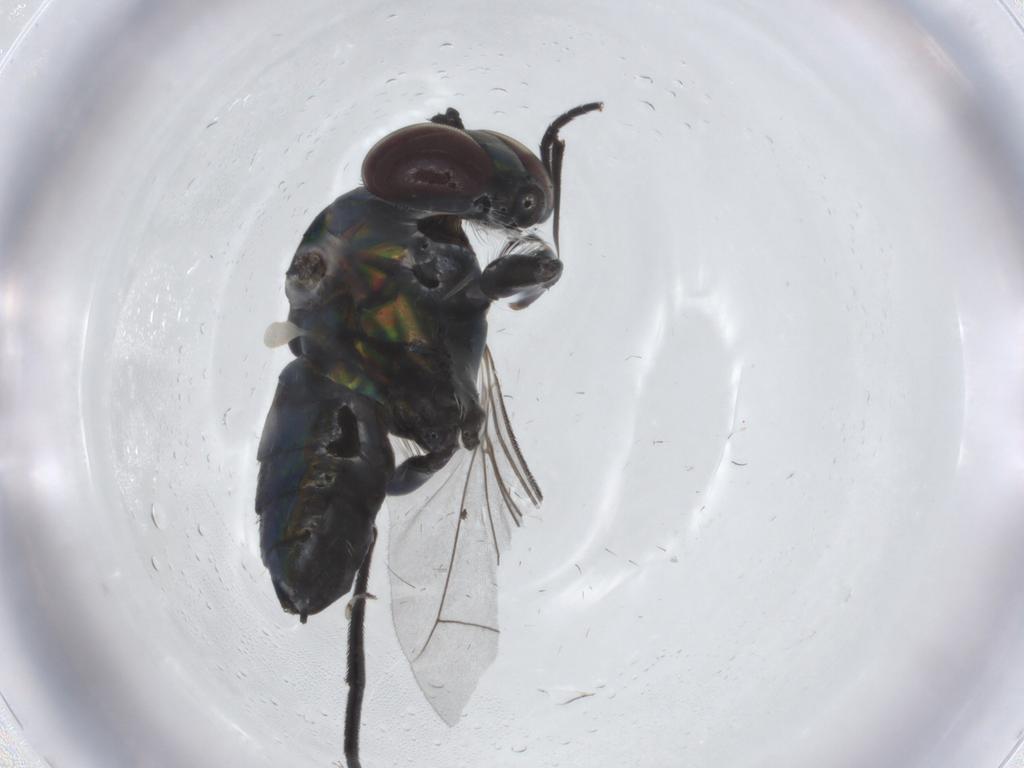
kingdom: Animalia
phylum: Arthropoda
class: Insecta
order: Diptera
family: Dolichopodidae
